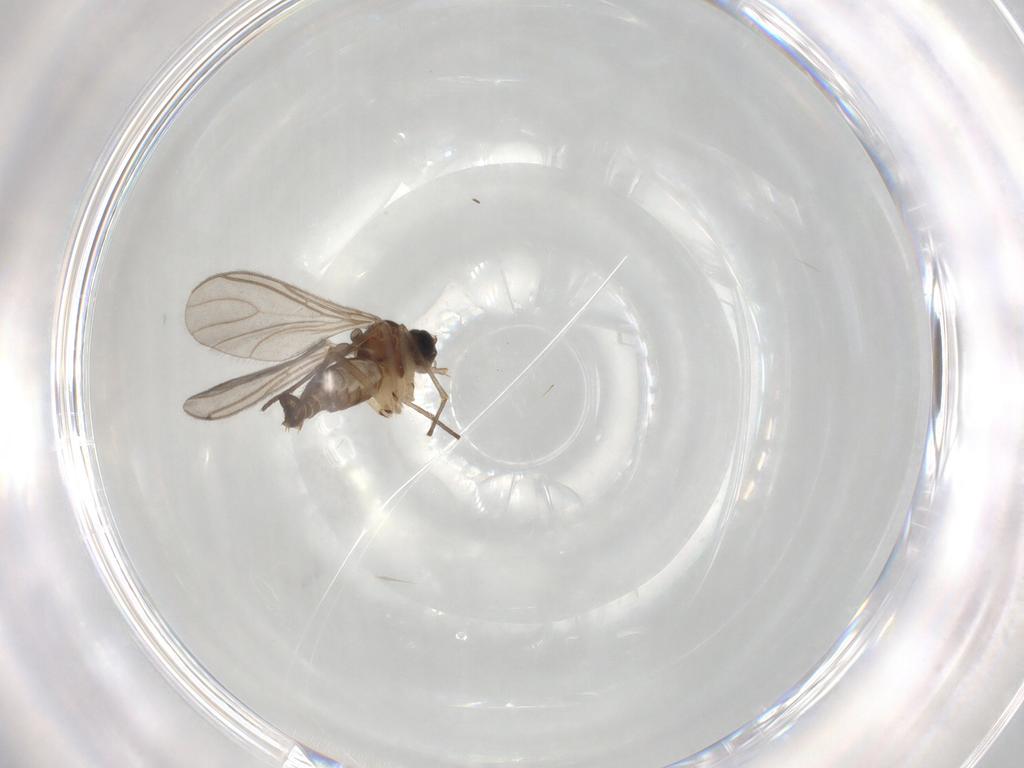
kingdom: Animalia
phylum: Arthropoda
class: Insecta
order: Diptera
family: Sciaridae
